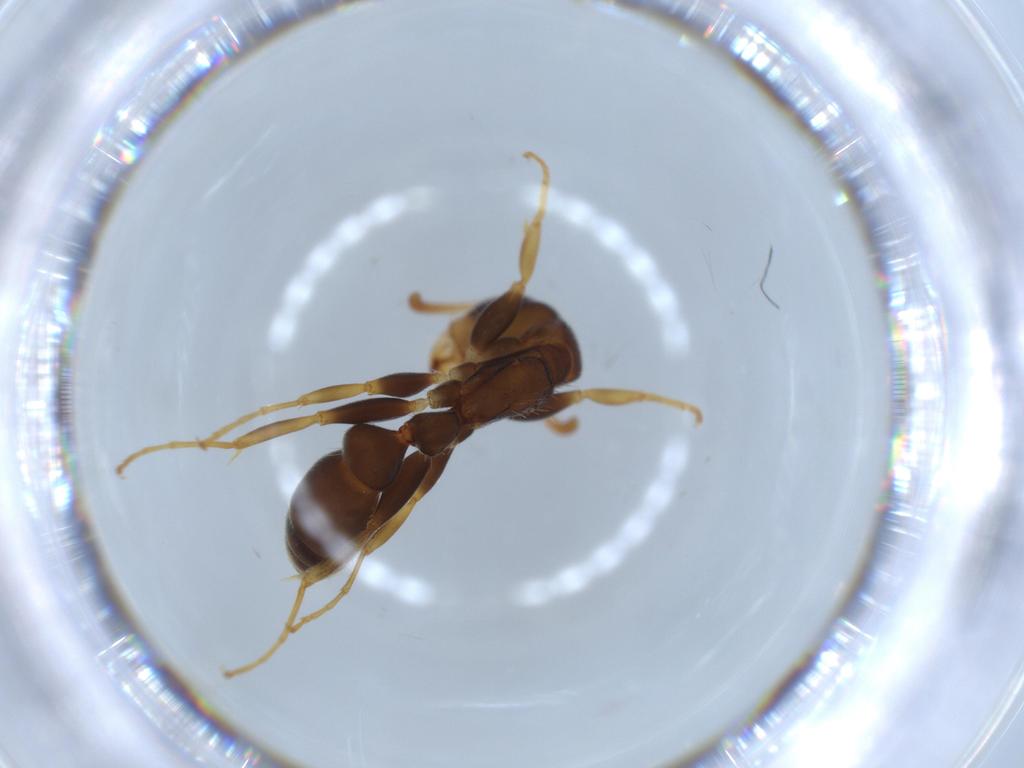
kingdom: Animalia
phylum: Arthropoda
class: Insecta
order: Hymenoptera
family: Formicidae
